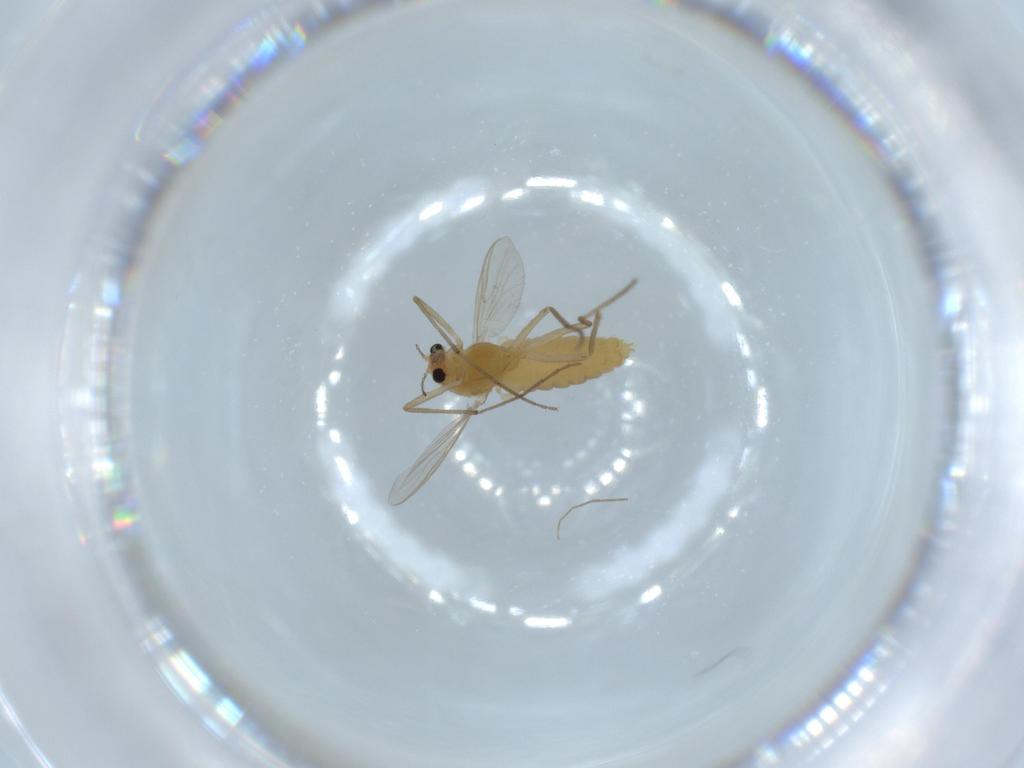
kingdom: Animalia
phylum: Arthropoda
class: Insecta
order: Diptera
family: Chironomidae
